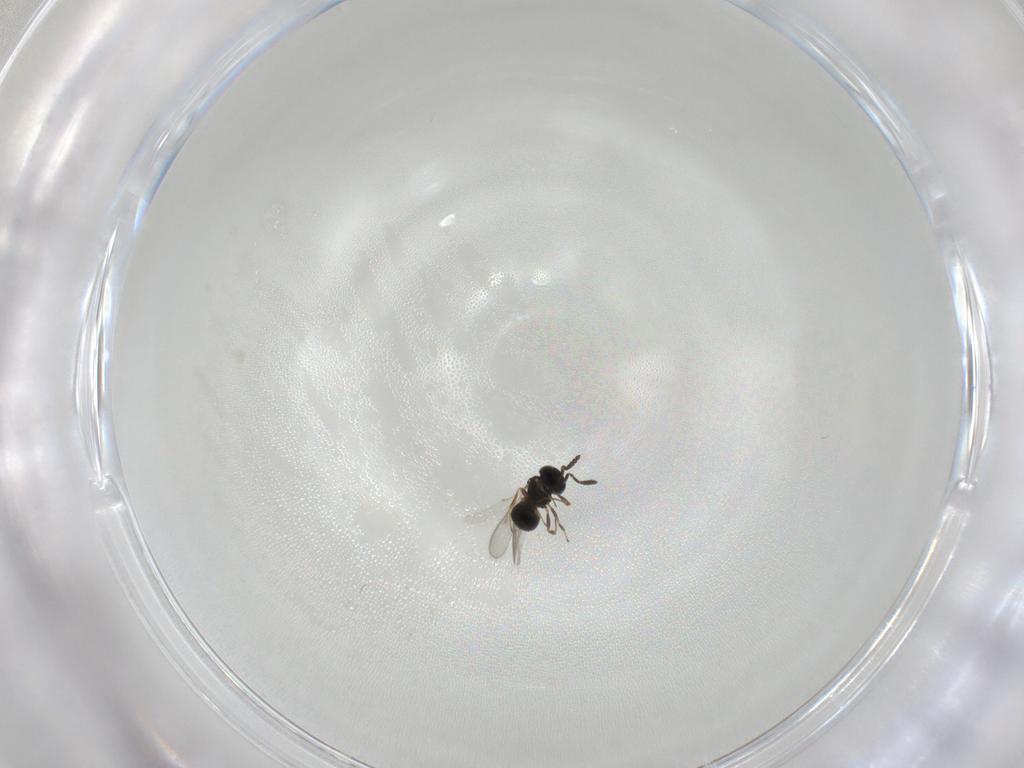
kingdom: Animalia
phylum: Arthropoda
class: Insecta
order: Hymenoptera
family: Scelionidae
